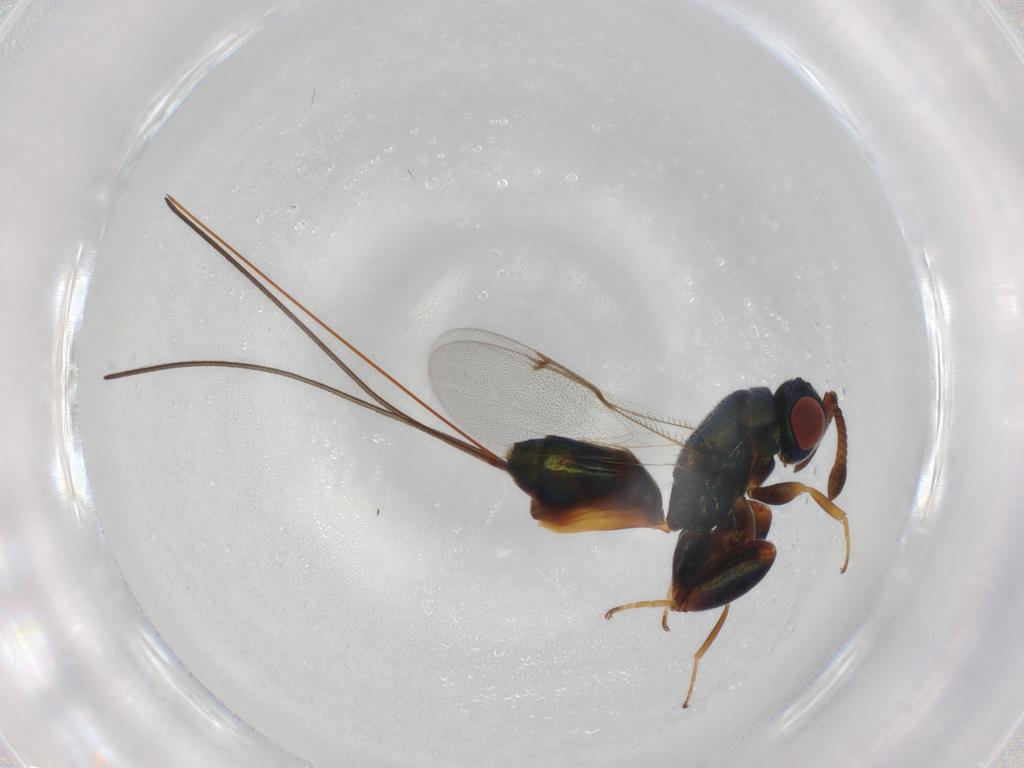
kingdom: Animalia
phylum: Arthropoda
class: Insecta
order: Hymenoptera
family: Torymidae
